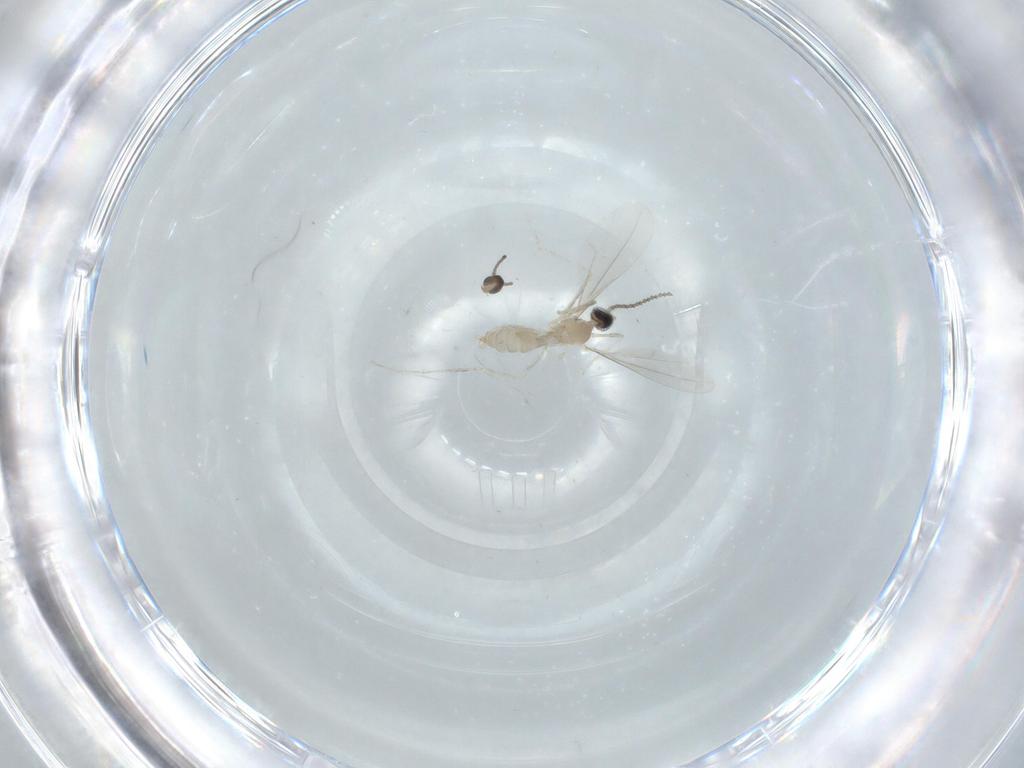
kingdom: Animalia
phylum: Arthropoda
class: Insecta
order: Diptera
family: Cecidomyiidae
